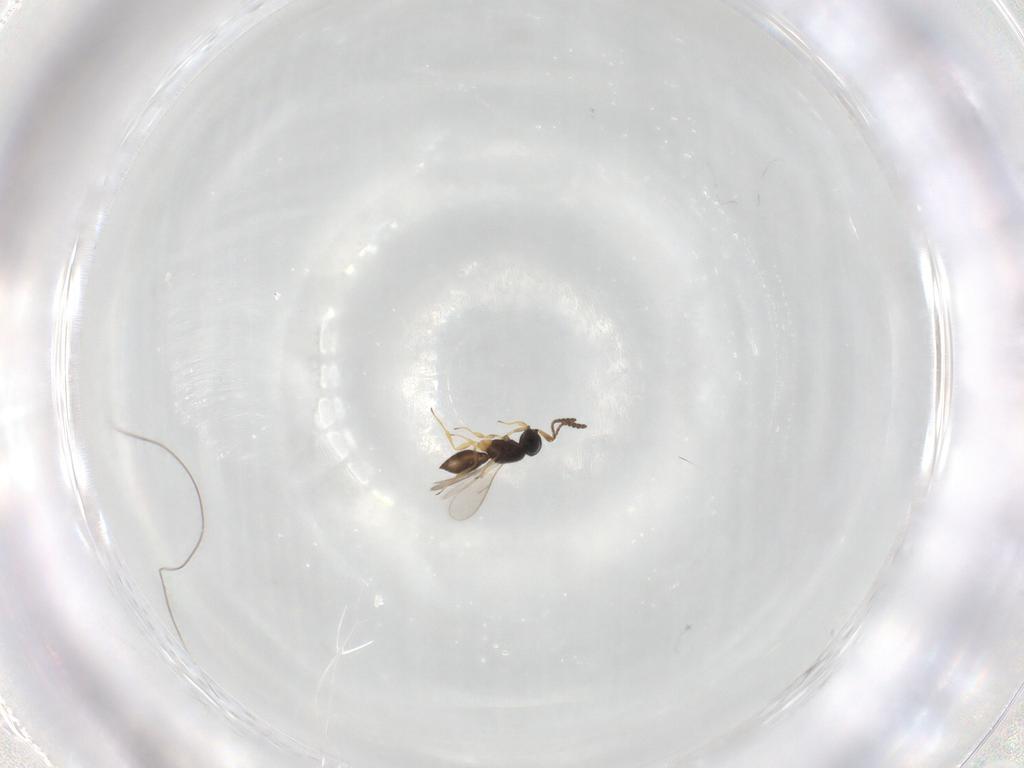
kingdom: Animalia
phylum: Arthropoda
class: Insecta
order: Hymenoptera
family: Scelionidae
